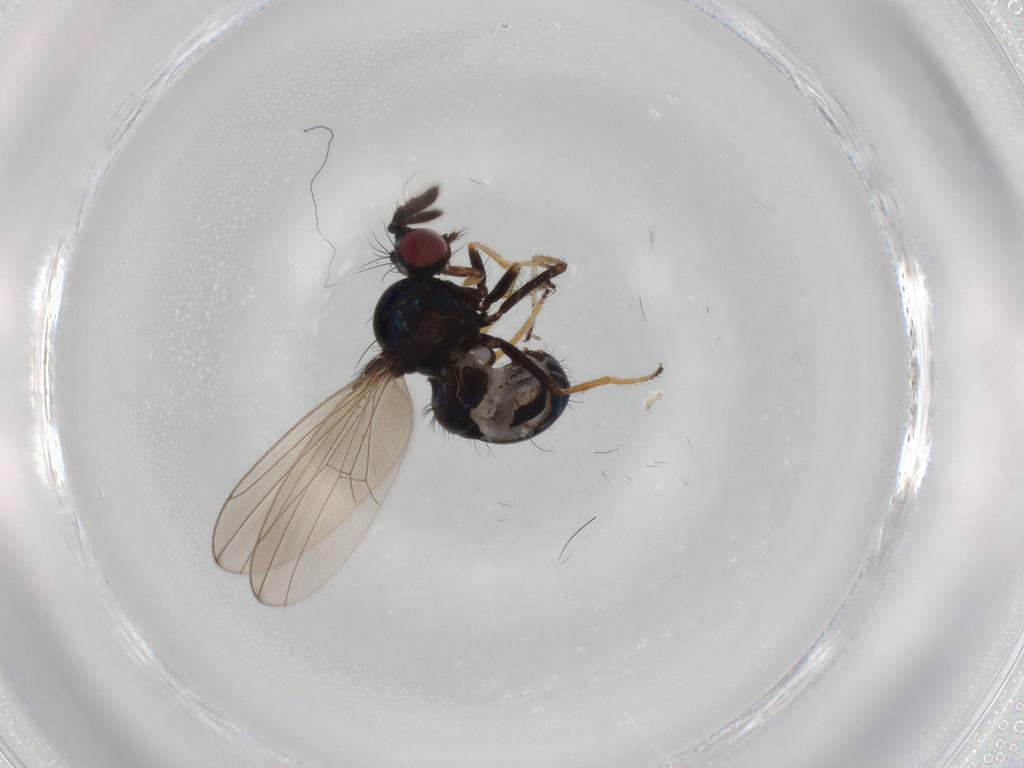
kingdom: Animalia
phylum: Arthropoda
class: Insecta
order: Diptera
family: Ephydridae
